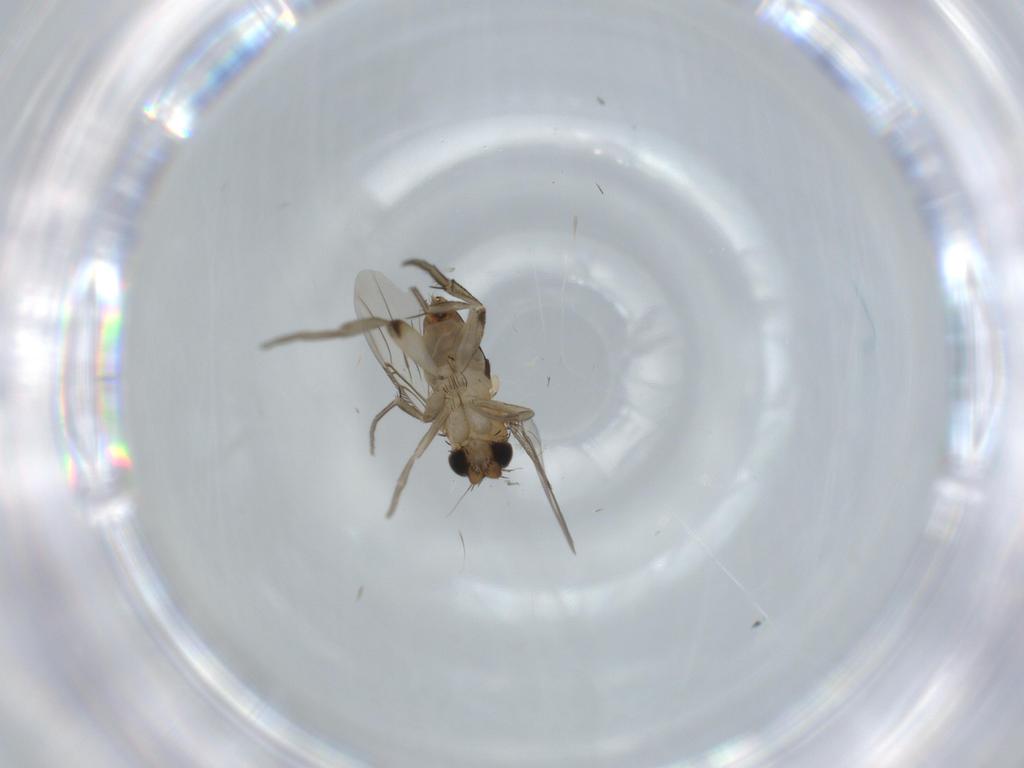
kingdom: Animalia
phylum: Arthropoda
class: Insecta
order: Diptera
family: Phoridae
